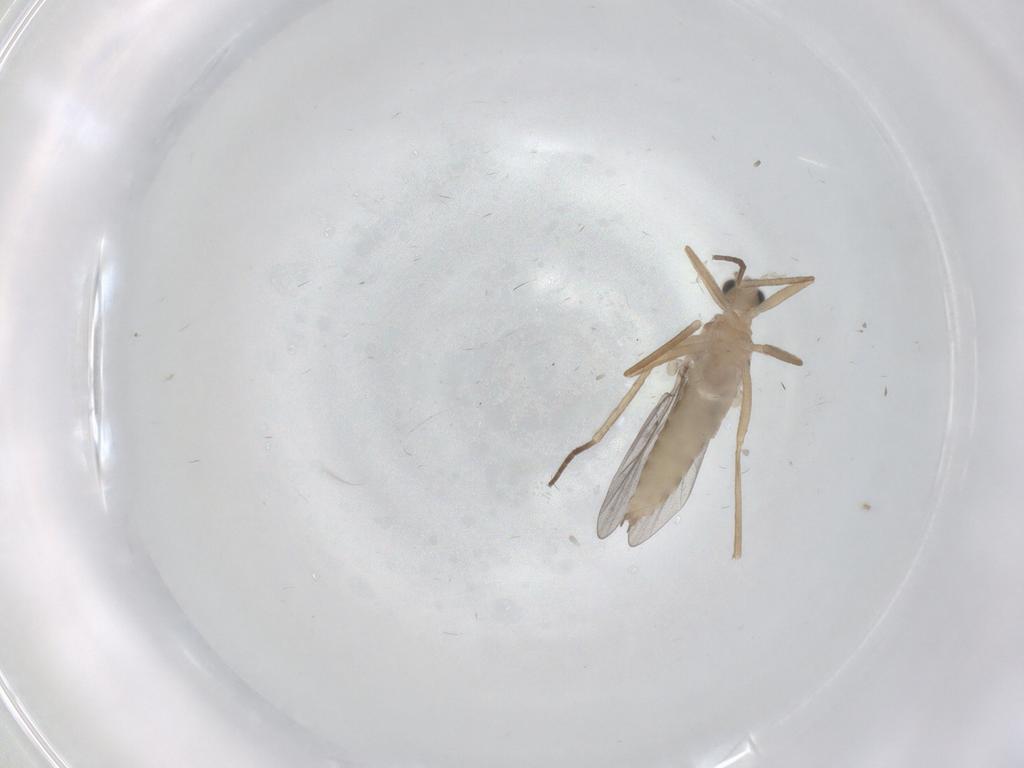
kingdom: Animalia
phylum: Arthropoda
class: Insecta
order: Diptera
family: Cecidomyiidae
